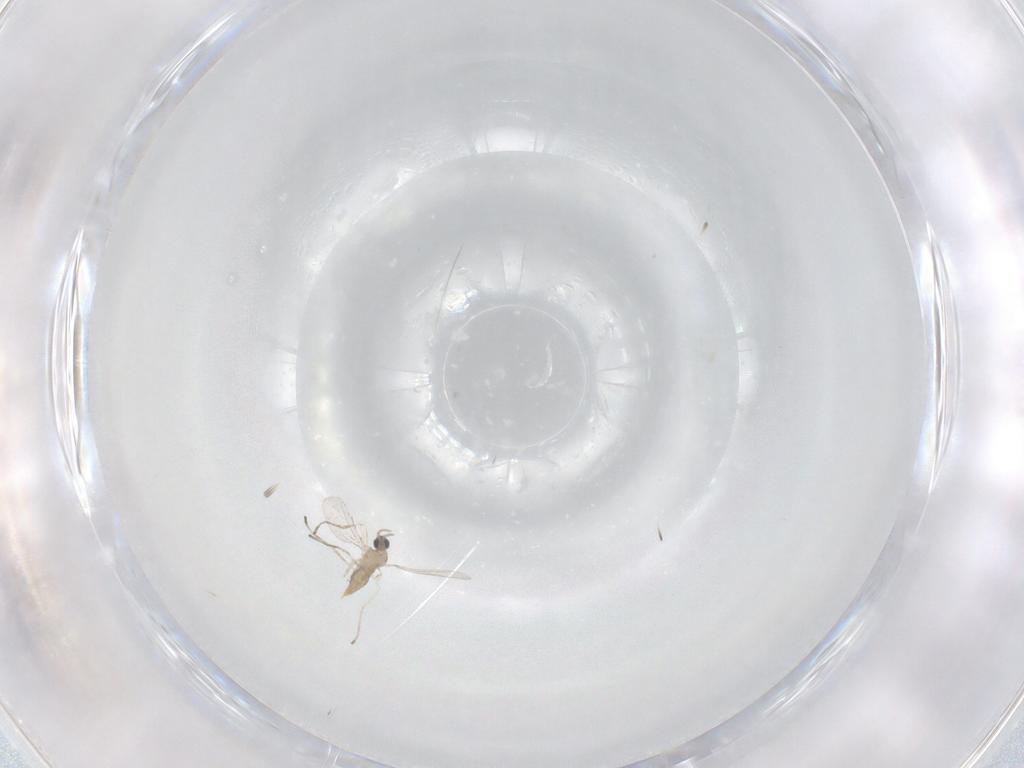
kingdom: Animalia
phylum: Arthropoda
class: Insecta
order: Diptera
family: Cecidomyiidae
